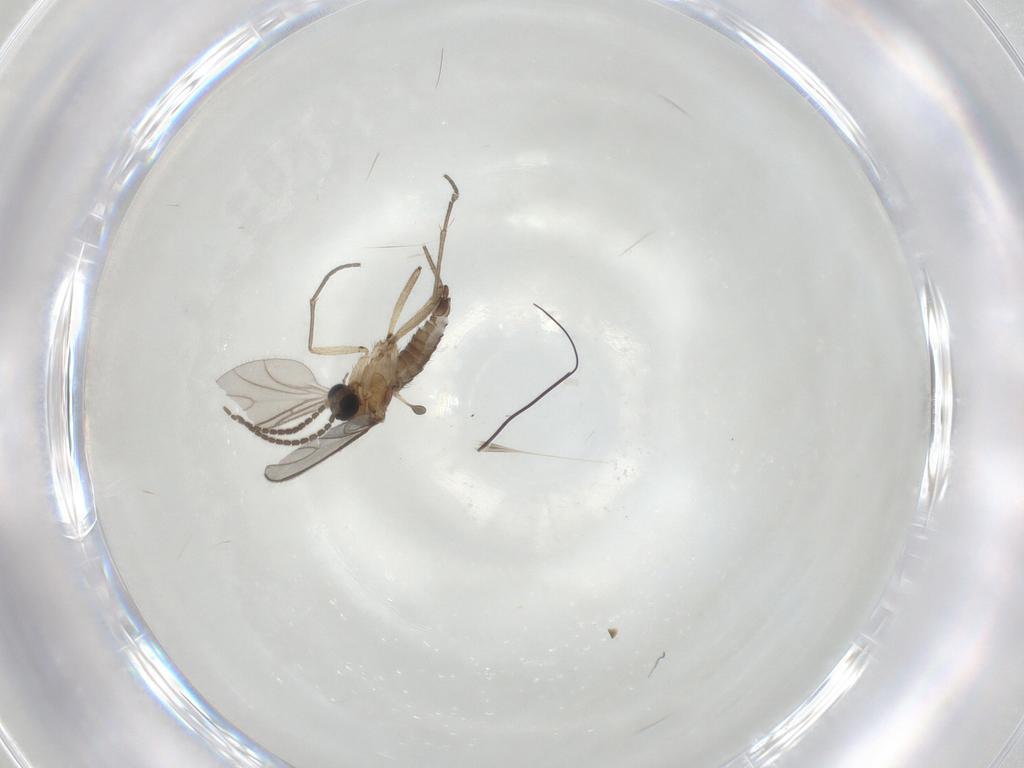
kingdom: Animalia
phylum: Arthropoda
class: Insecta
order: Diptera
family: Sciaridae
